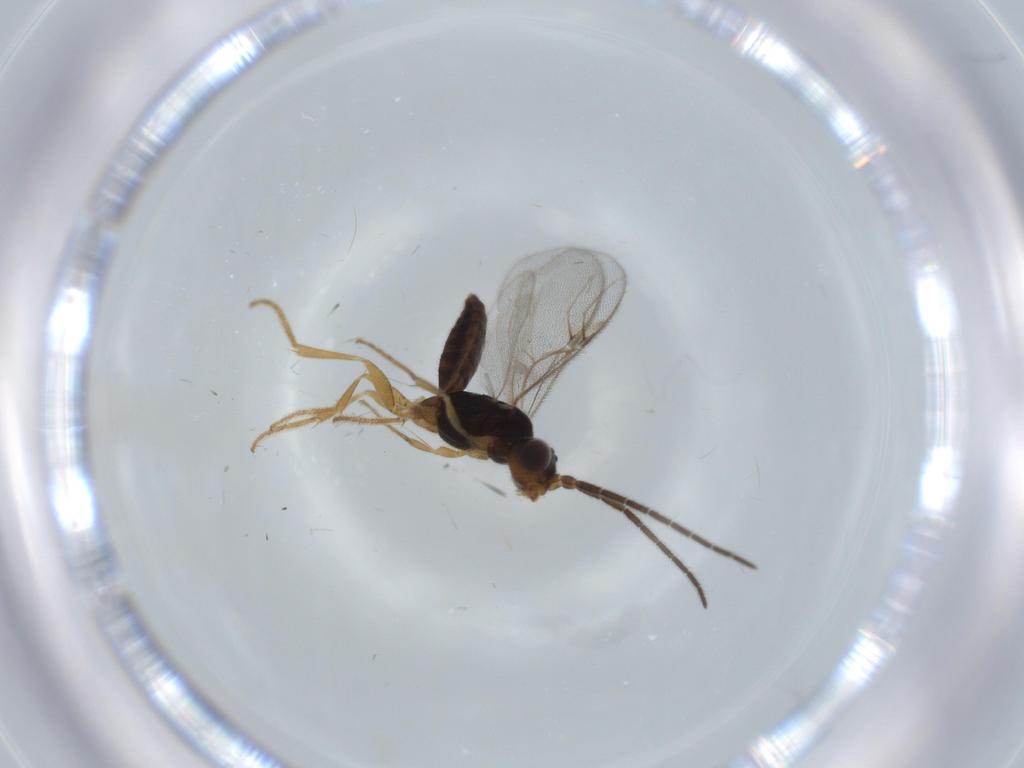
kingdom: Animalia
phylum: Arthropoda
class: Insecta
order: Hymenoptera
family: Dryinidae
